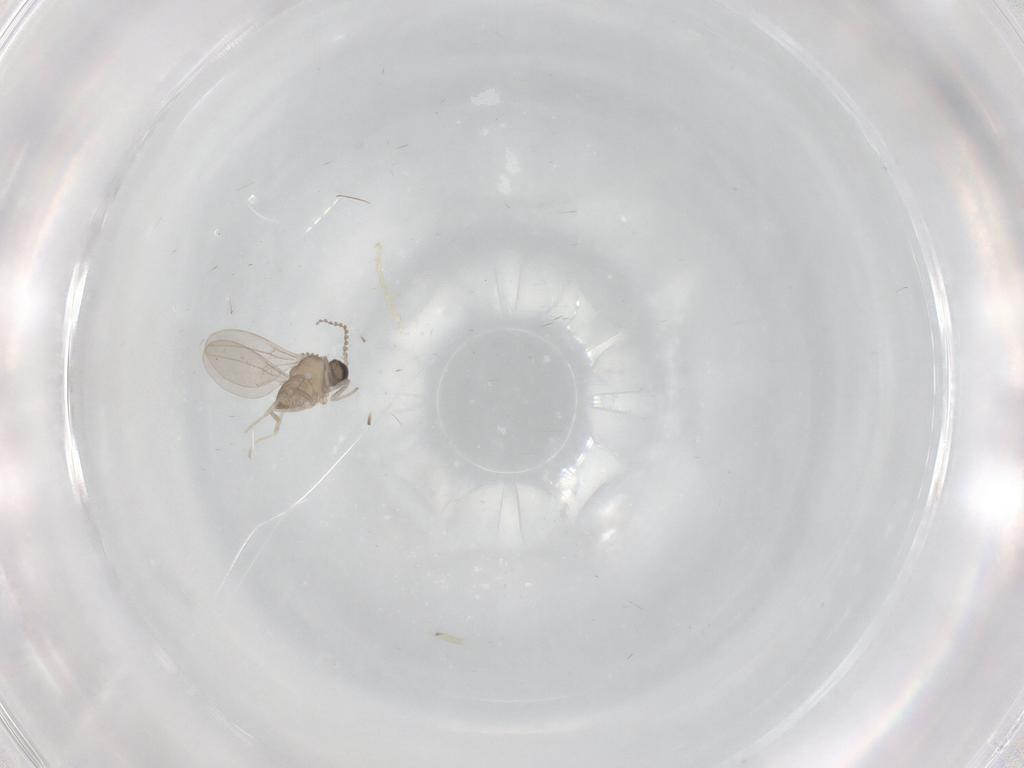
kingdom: Animalia
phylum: Arthropoda
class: Insecta
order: Diptera
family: Cecidomyiidae
